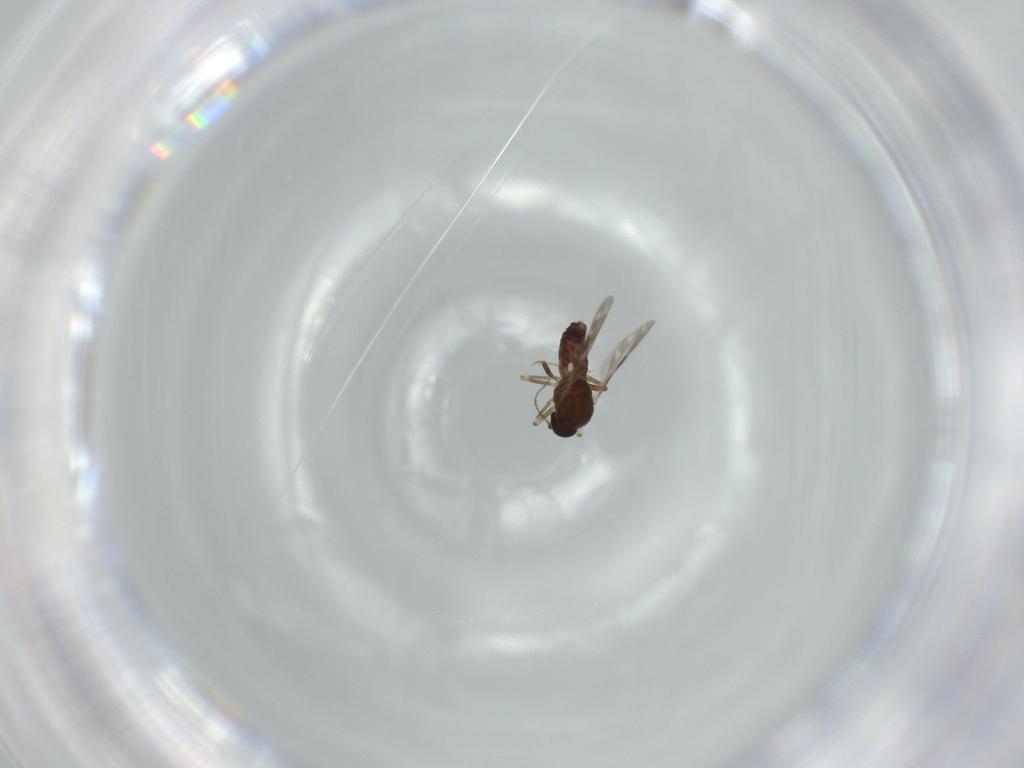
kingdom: Animalia
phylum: Arthropoda
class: Insecta
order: Diptera
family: Ceratopogonidae
